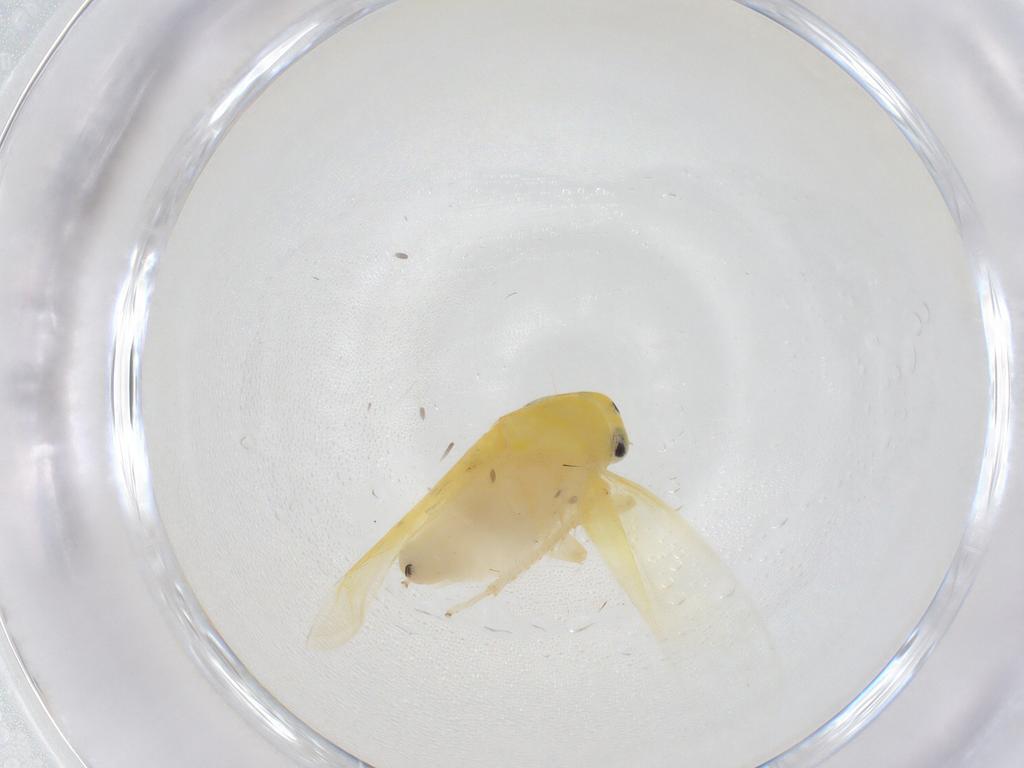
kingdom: Animalia
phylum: Arthropoda
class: Insecta
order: Hemiptera
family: Cicadellidae
